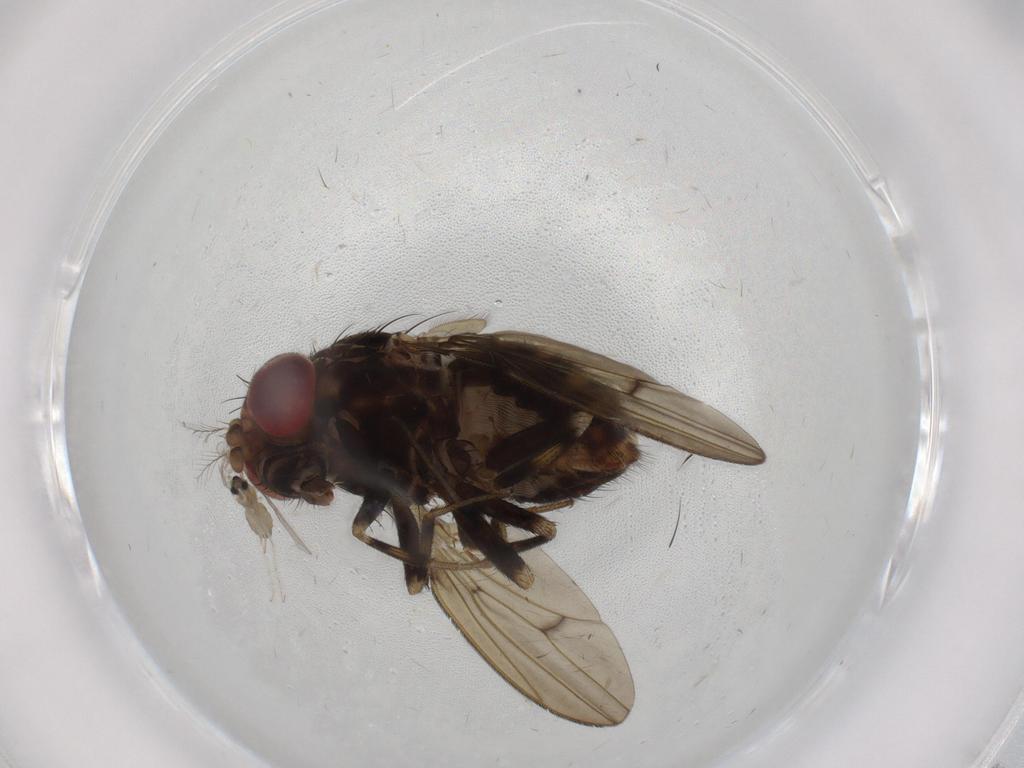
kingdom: Animalia
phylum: Arthropoda
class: Insecta
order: Diptera
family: Drosophilidae
